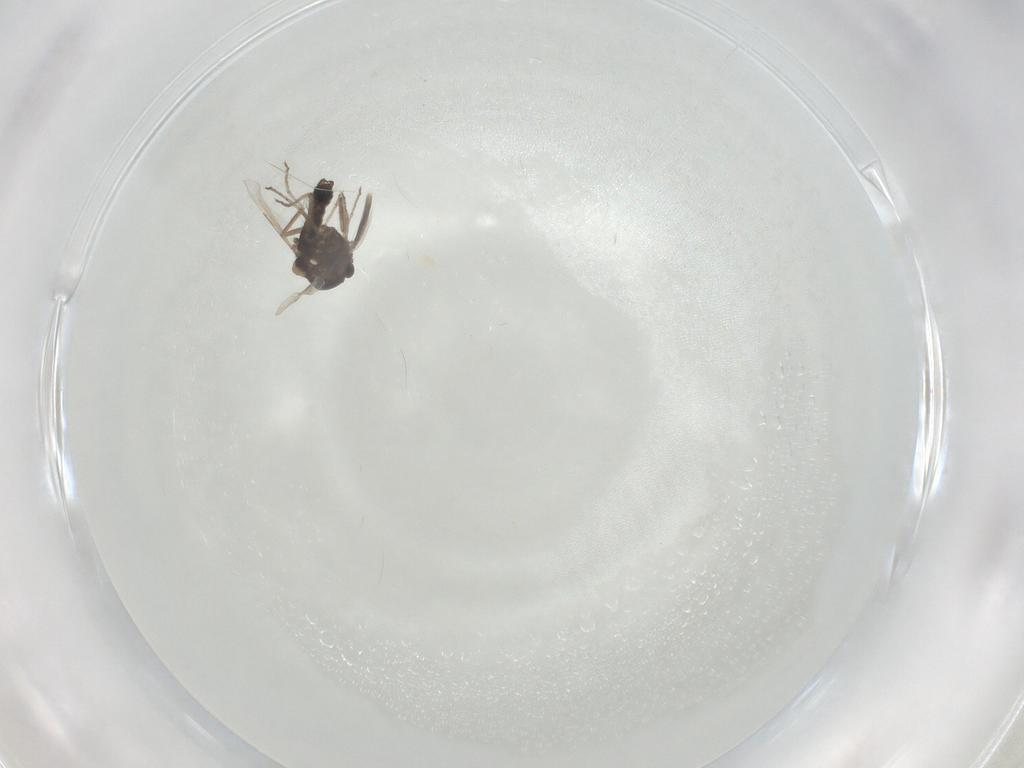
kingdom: Animalia
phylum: Arthropoda
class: Insecta
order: Diptera
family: Ceratopogonidae
